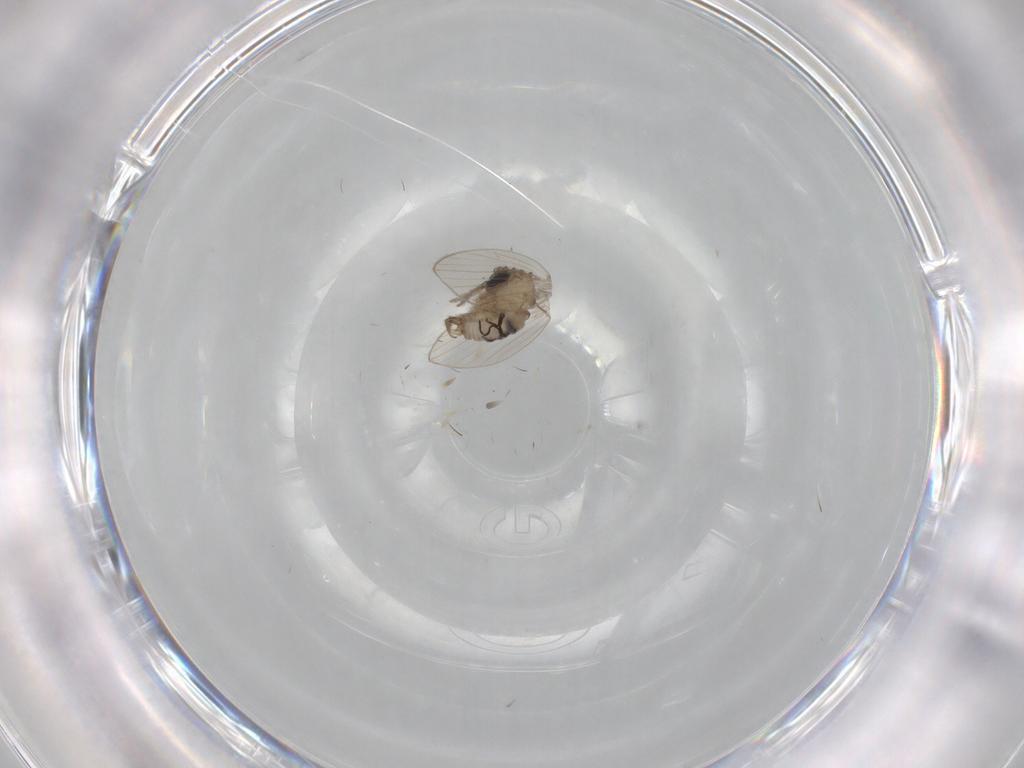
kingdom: Animalia
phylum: Arthropoda
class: Insecta
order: Diptera
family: Psychodidae
